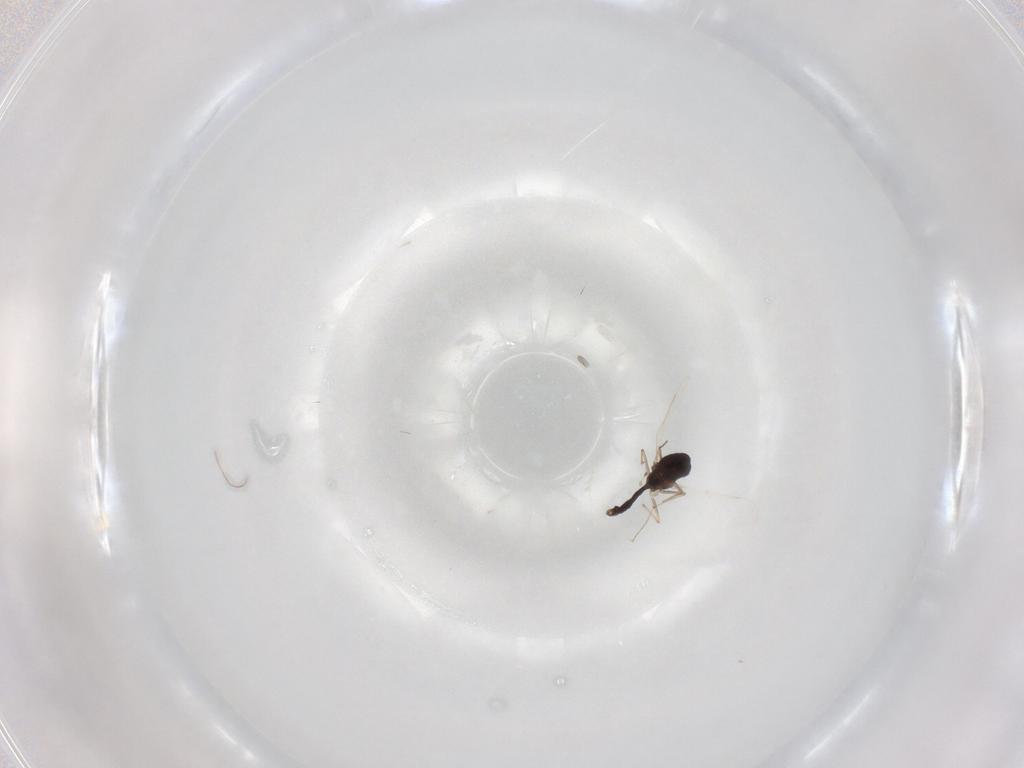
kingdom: Animalia
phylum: Arthropoda
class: Insecta
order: Diptera
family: Chironomidae
